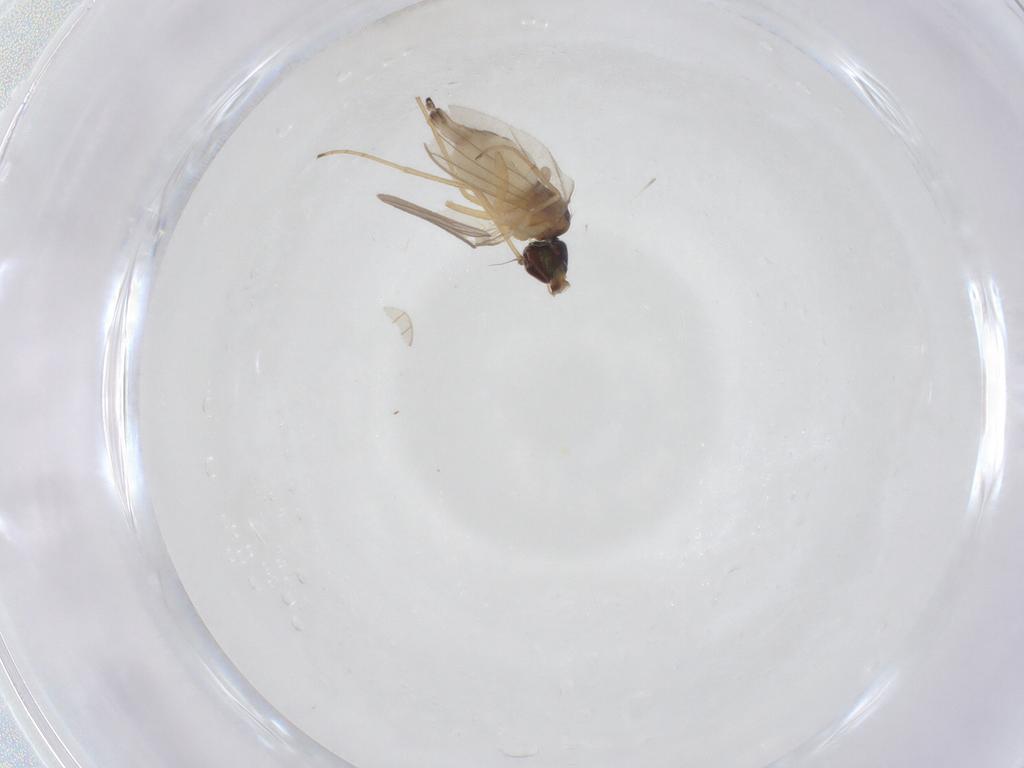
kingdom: Animalia
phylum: Arthropoda
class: Insecta
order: Diptera
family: Dolichopodidae
